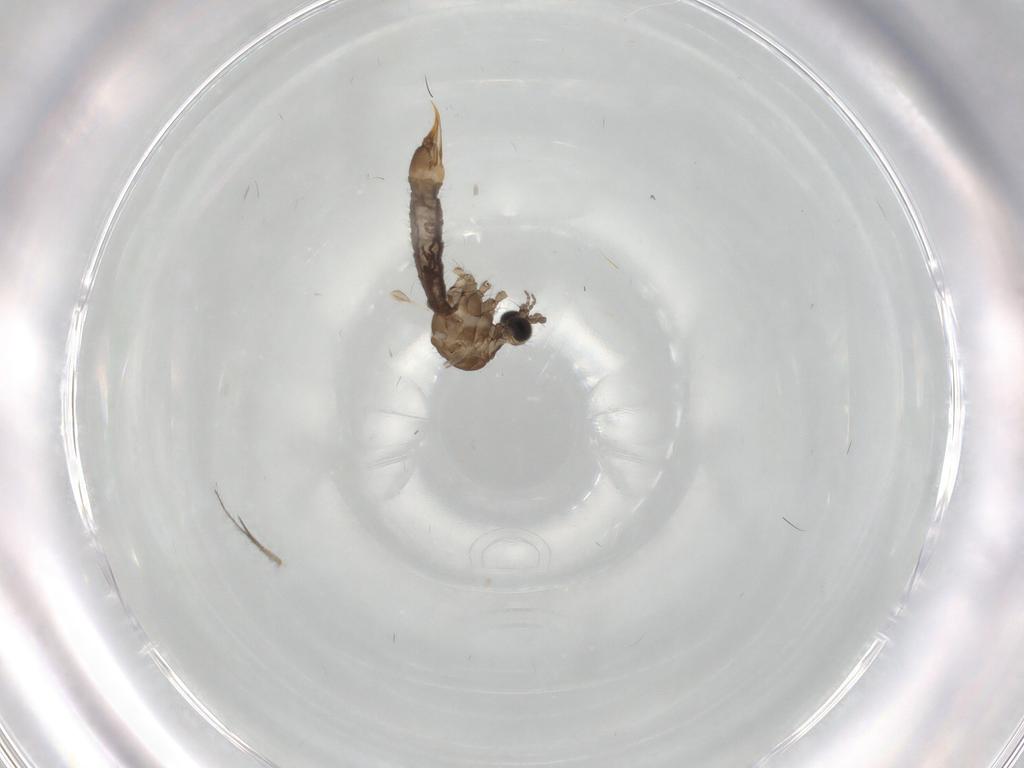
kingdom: Animalia
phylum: Arthropoda
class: Insecta
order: Diptera
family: Limoniidae
